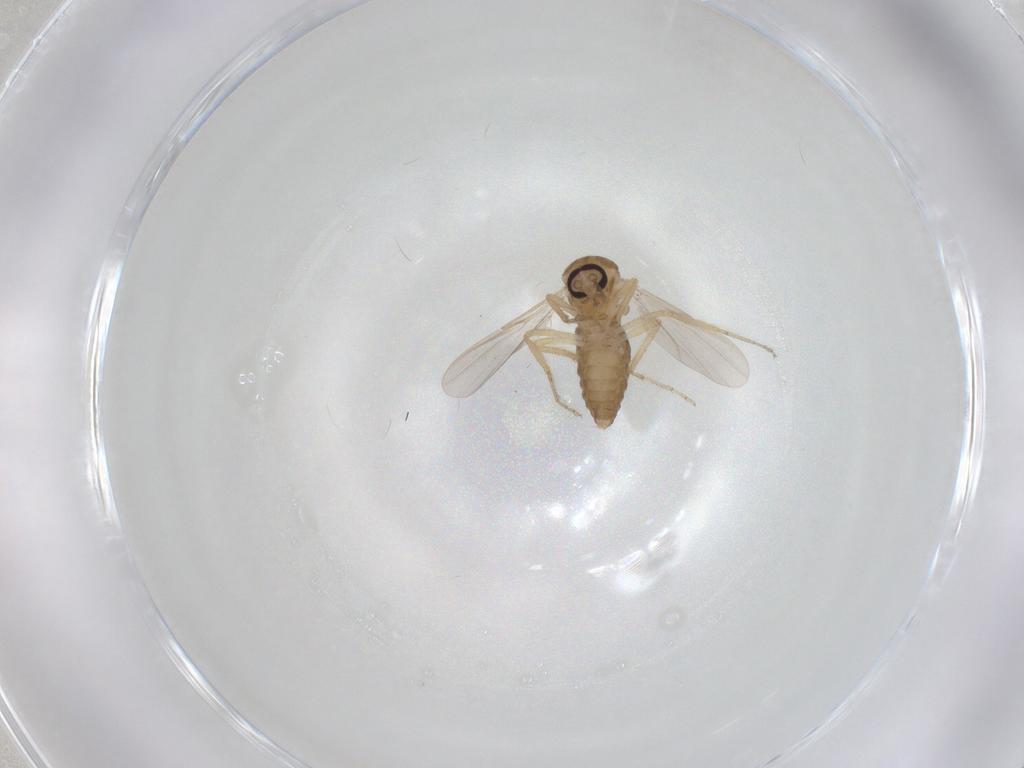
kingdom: Animalia
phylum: Arthropoda
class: Insecta
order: Diptera
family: Ceratopogonidae
